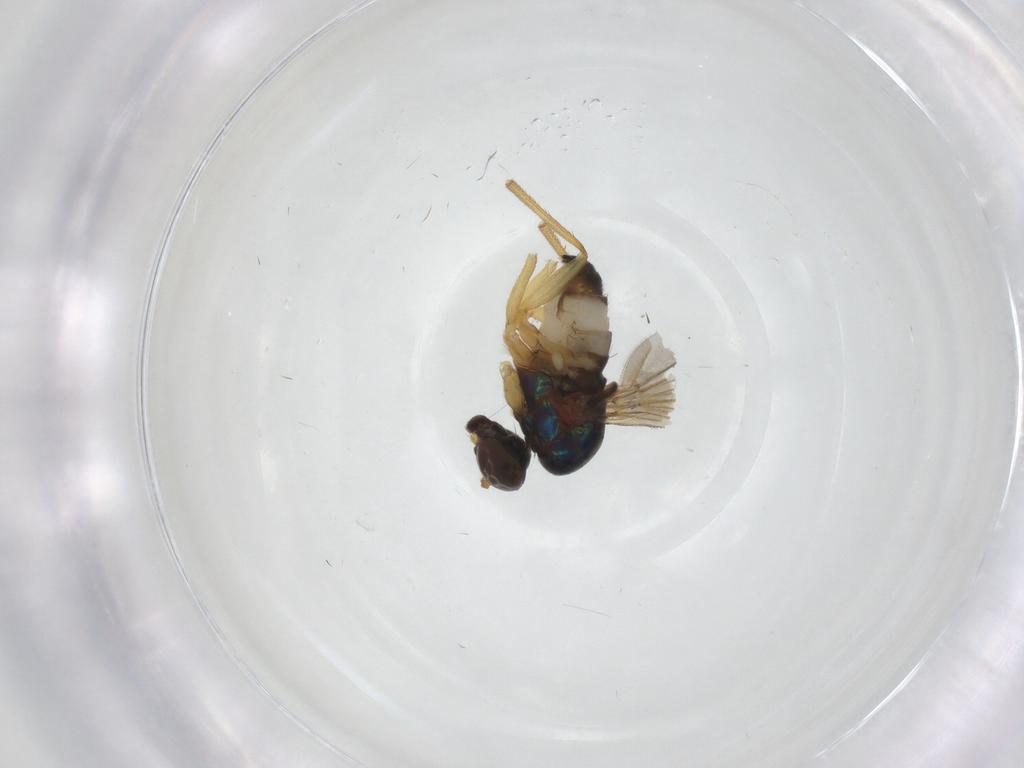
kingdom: Animalia
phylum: Arthropoda
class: Insecta
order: Diptera
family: Dolichopodidae
